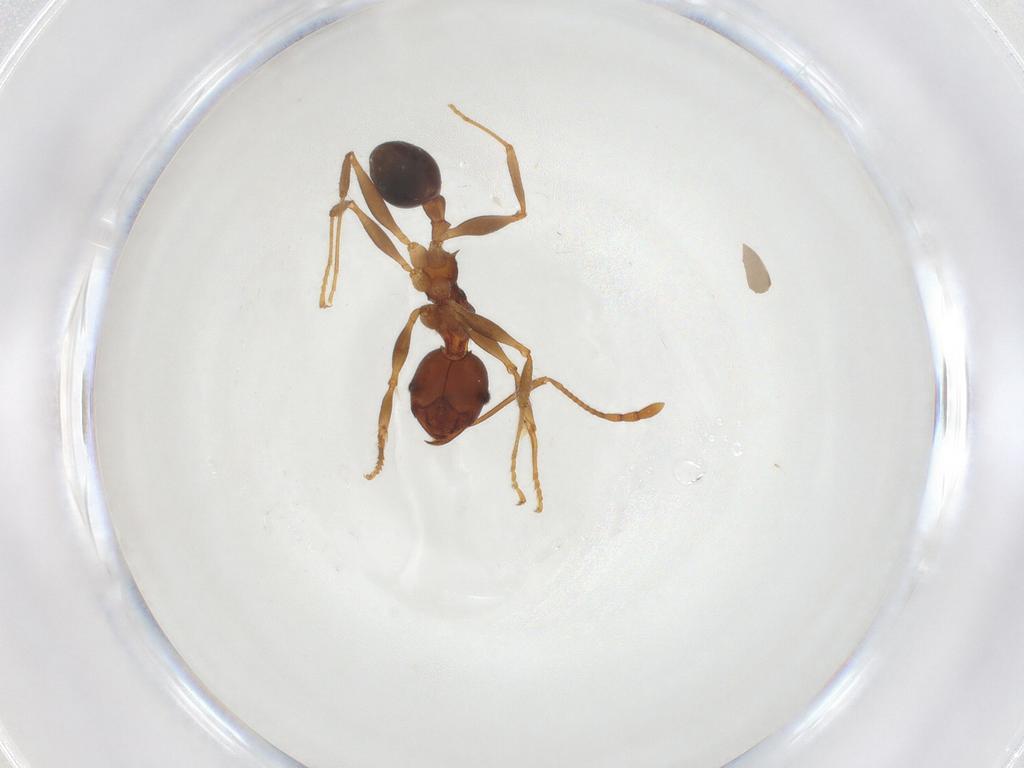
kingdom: Animalia
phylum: Arthropoda
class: Insecta
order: Hymenoptera
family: Formicidae
